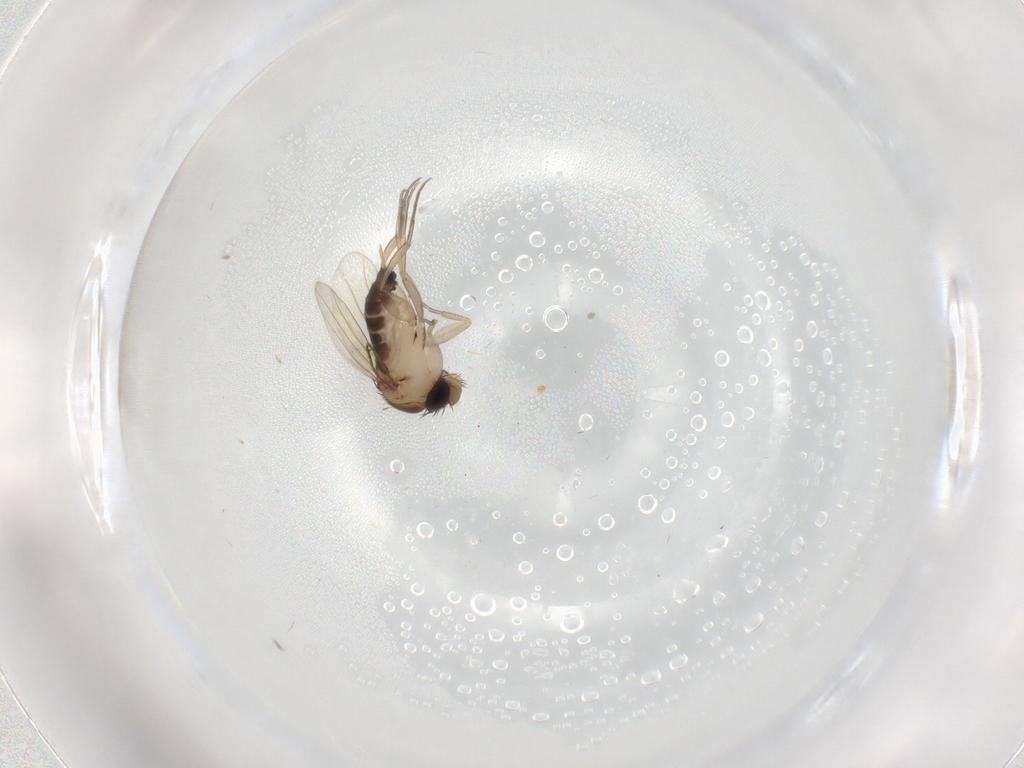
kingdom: Animalia
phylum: Arthropoda
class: Insecta
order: Diptera
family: Phoridae
